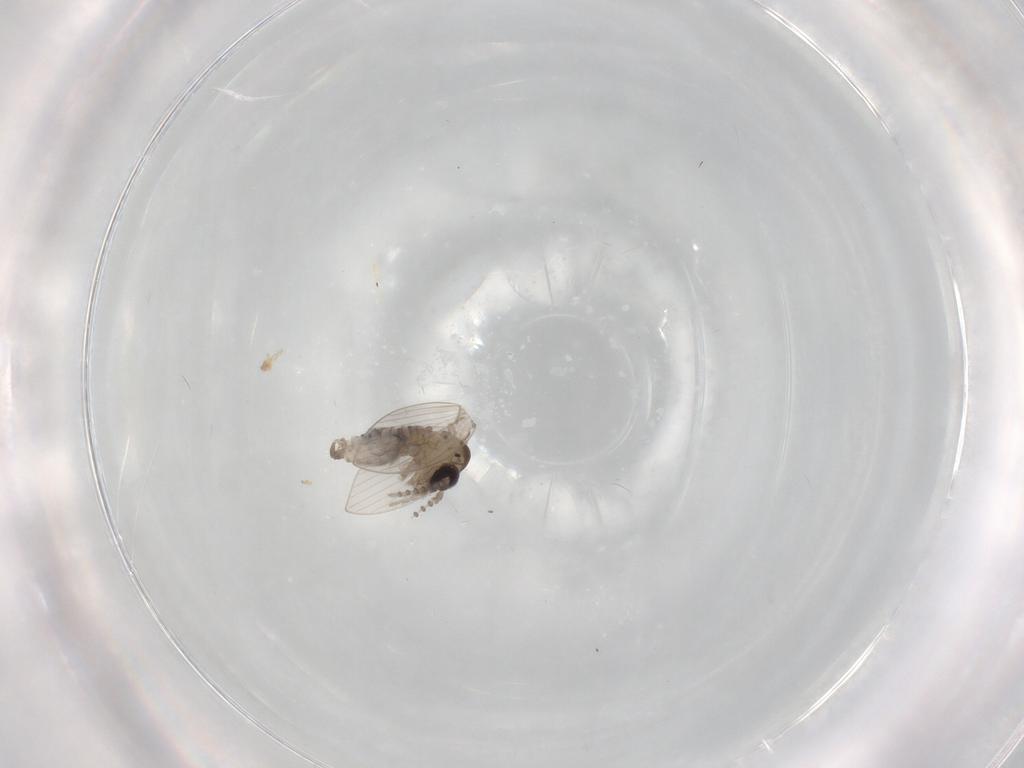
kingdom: Animalia
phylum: Arthropoda
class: Insecta
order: Diptera
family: Psychodidae
